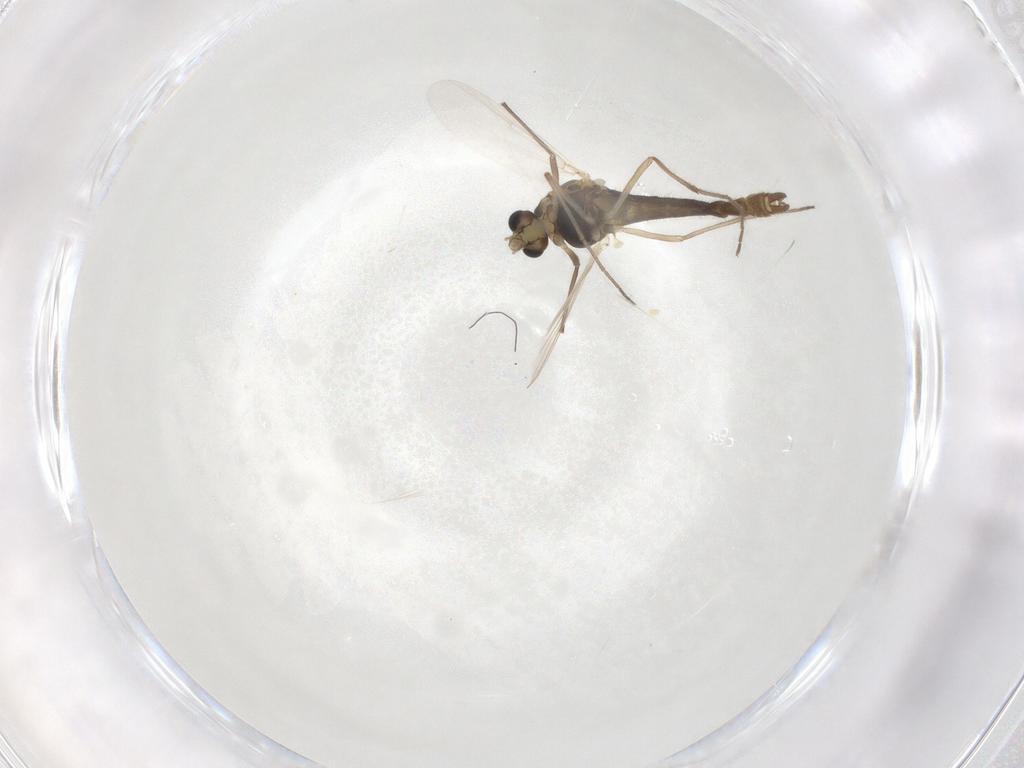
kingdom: Animalia
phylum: Arthropoda
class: Insecta
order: Diptera
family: Chironomidae
